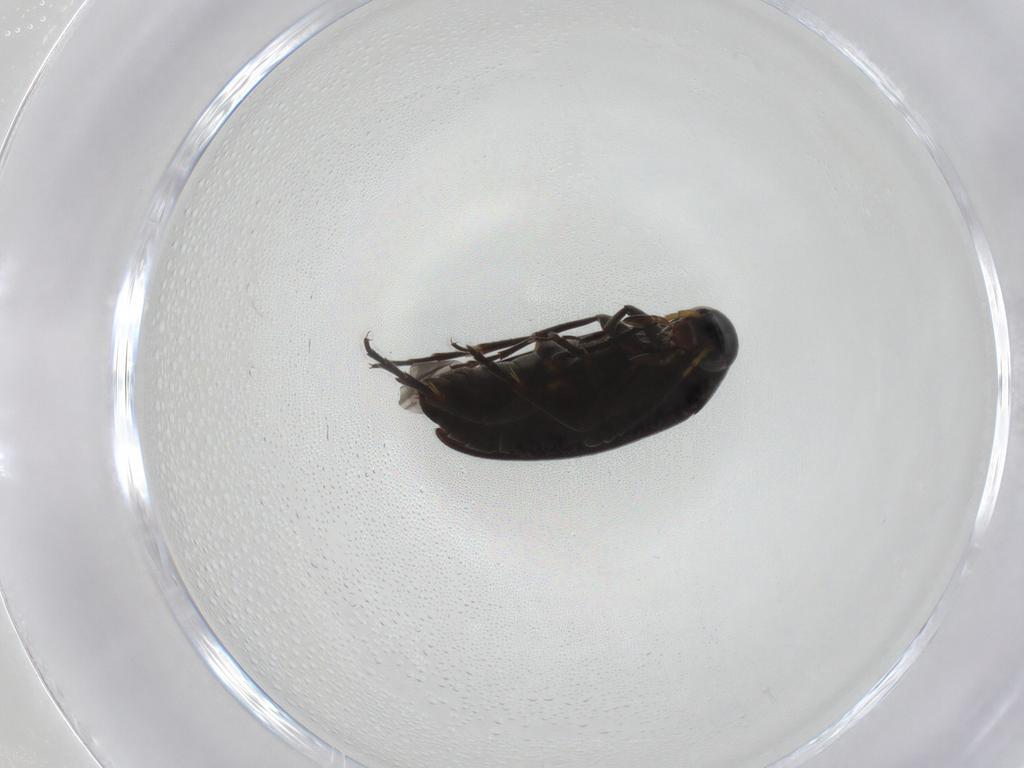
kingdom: Animalia
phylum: Arthropoda
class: Insecta
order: Coleoptera
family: Scraptiidae
